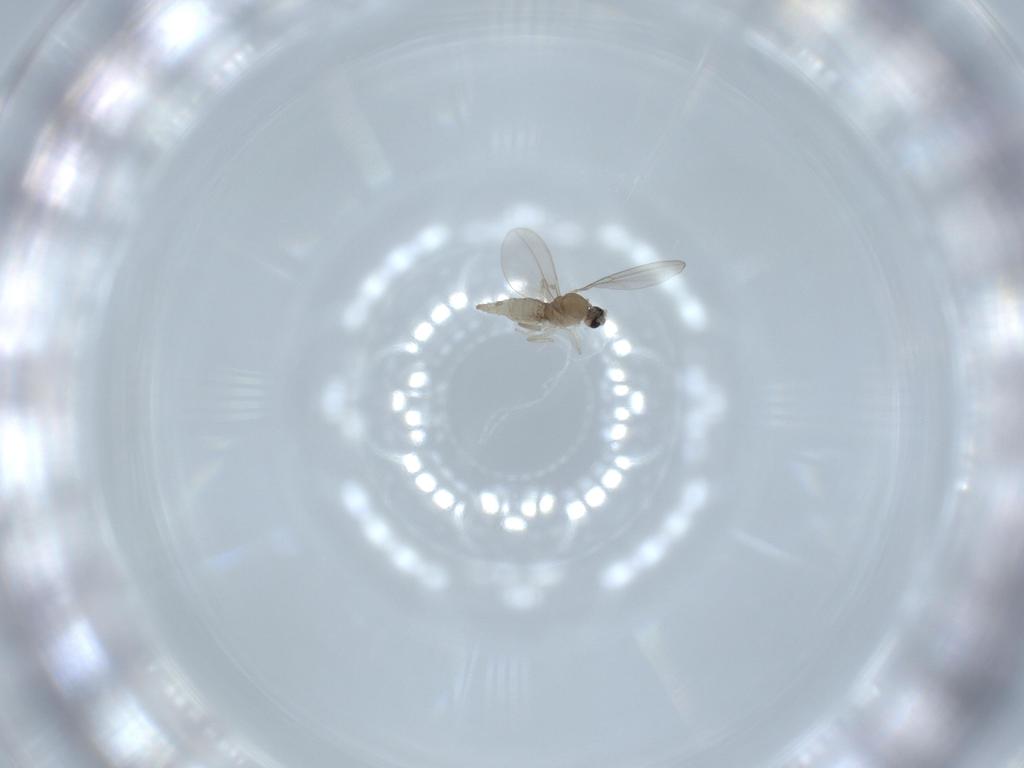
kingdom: Animalia
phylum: Arthropoda
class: Insecta
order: Diptera
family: Cecidomyiidae
